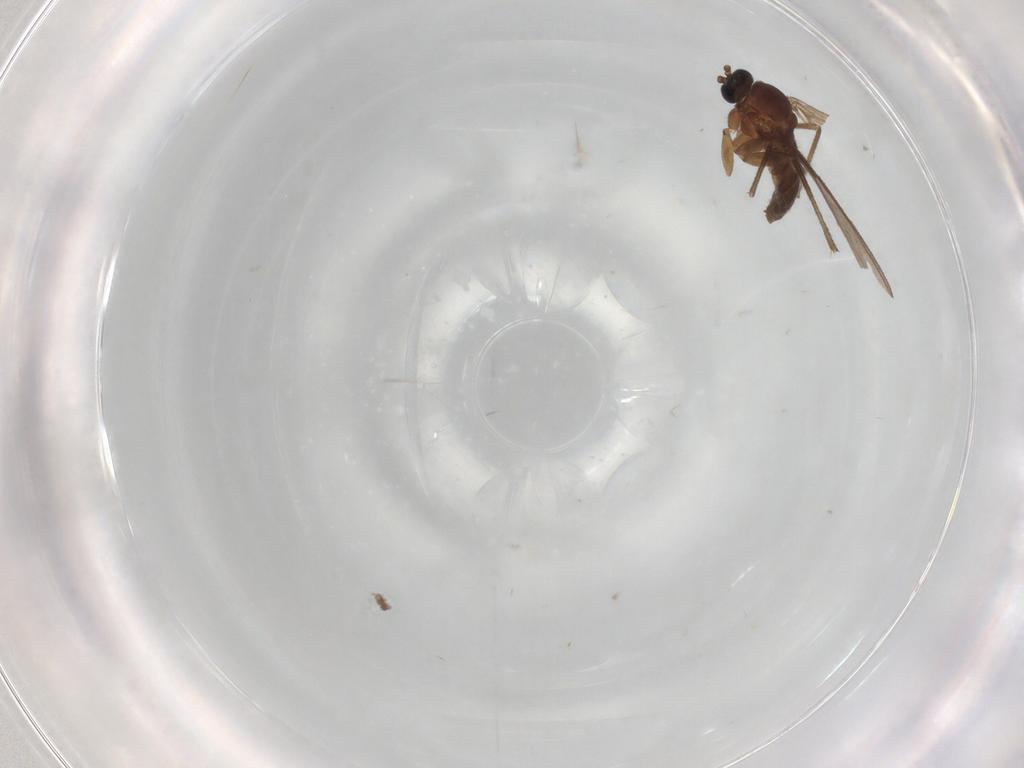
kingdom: Animalia
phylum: Arthropoda
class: Insecta
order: Diptera
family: Sciaridae
